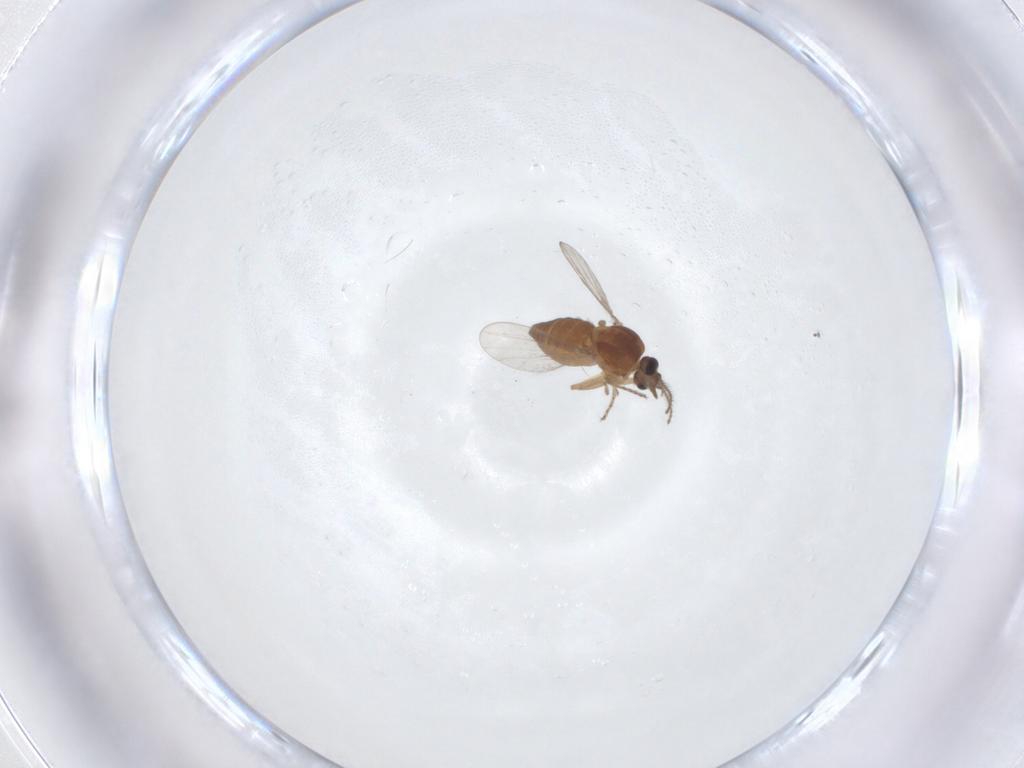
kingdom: Animalia
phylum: Arthropoda
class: Insecta
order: Diptera
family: Ceratopogonidae
